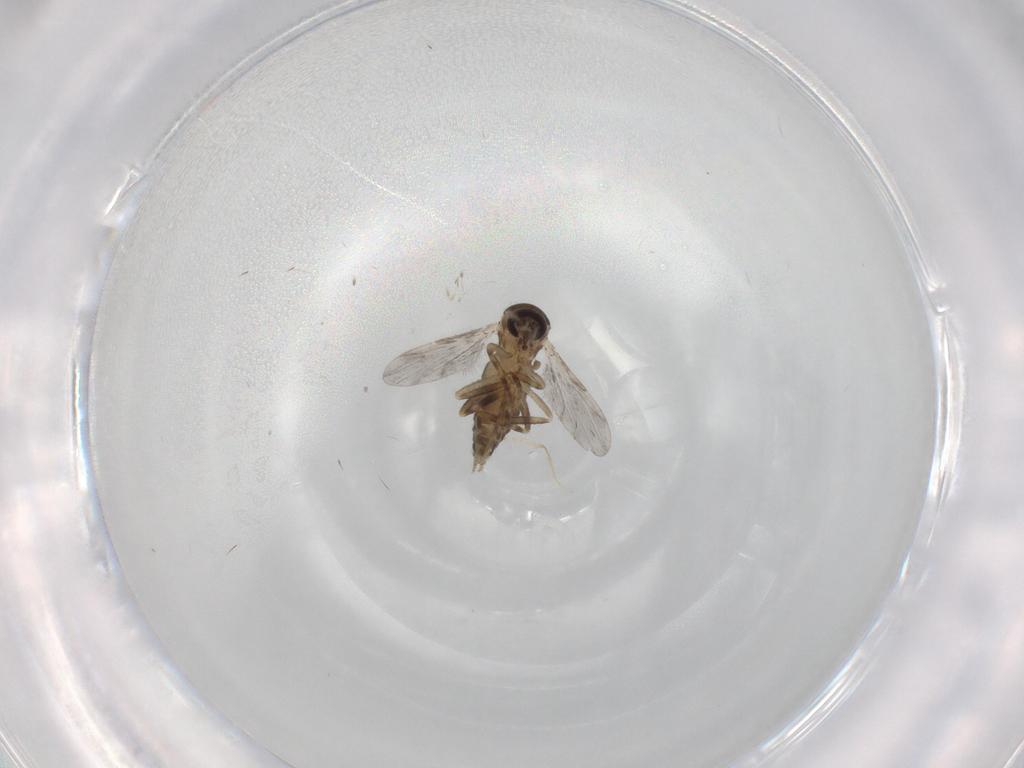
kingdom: Animalia
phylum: Arthropoda
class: Insecta
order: Diptera
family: Ceratopogonidae
